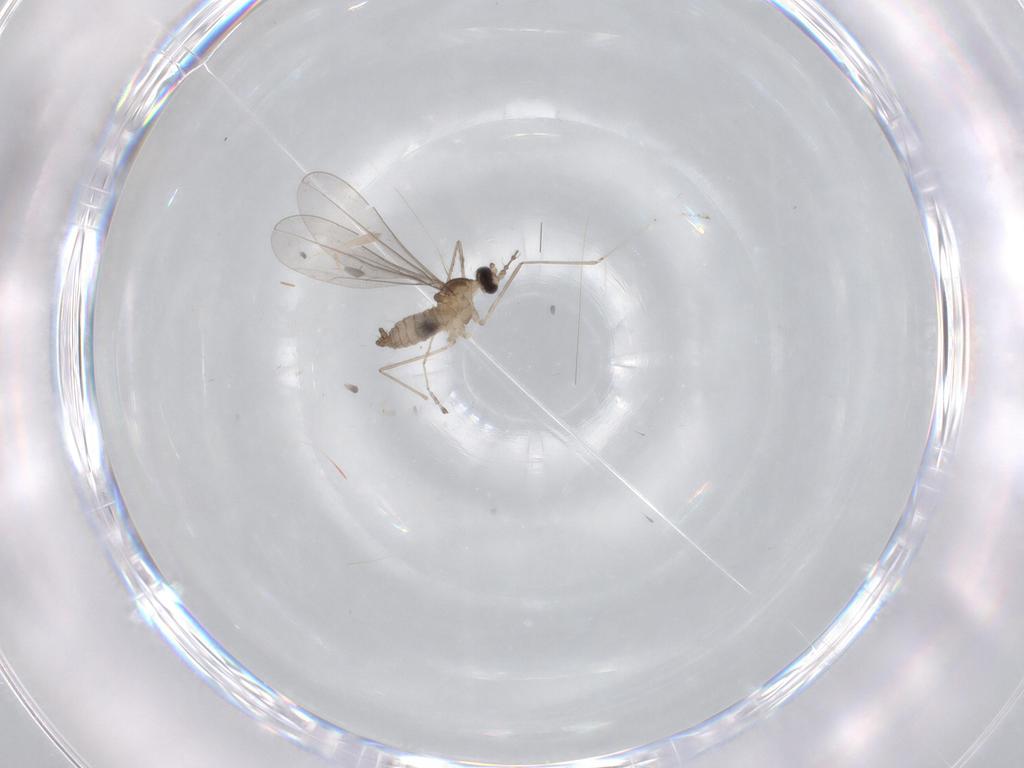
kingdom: Animalia
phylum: Arthropoda
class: Insecta
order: Diptera
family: Cecidomyiidae
